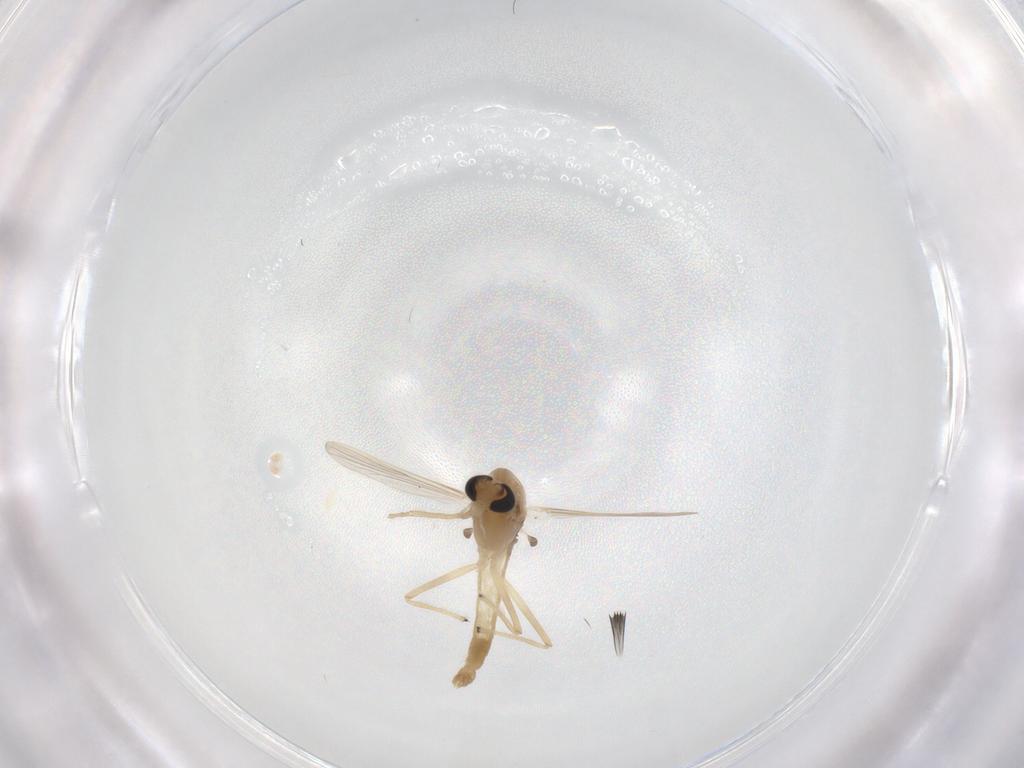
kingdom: Animalia
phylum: Arthropoda
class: Insecta
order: Diptera
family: Chironomidae
